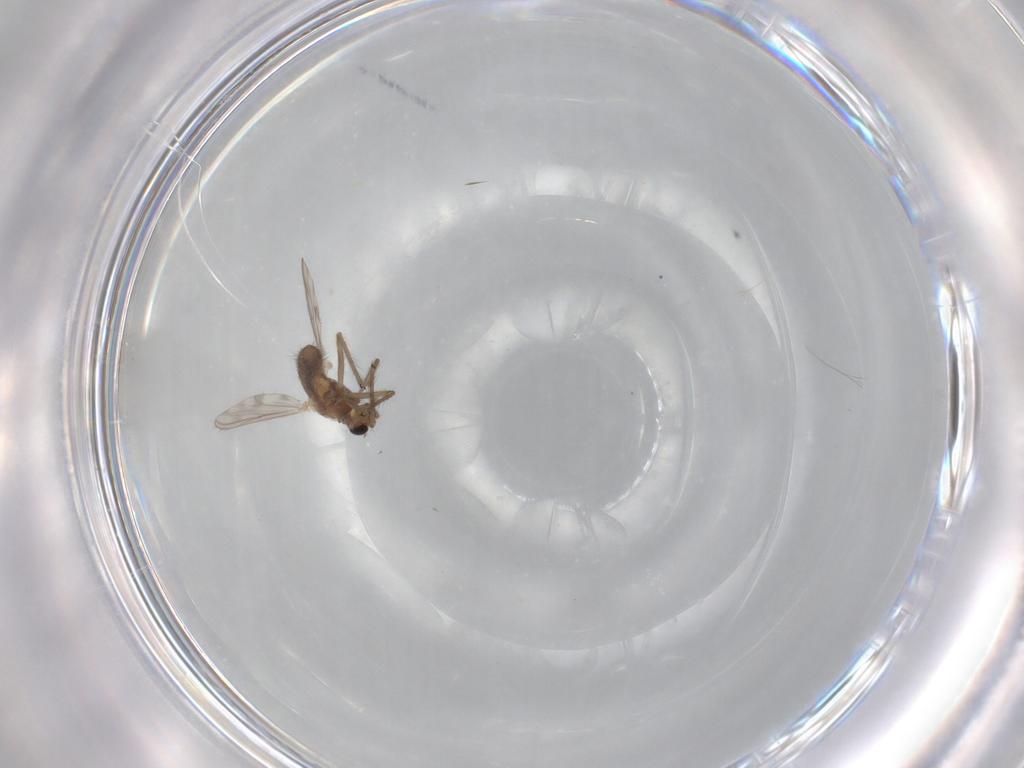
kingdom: Animalia
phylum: Arthropoda
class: Insecta
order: Diptera
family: Chironomidae
